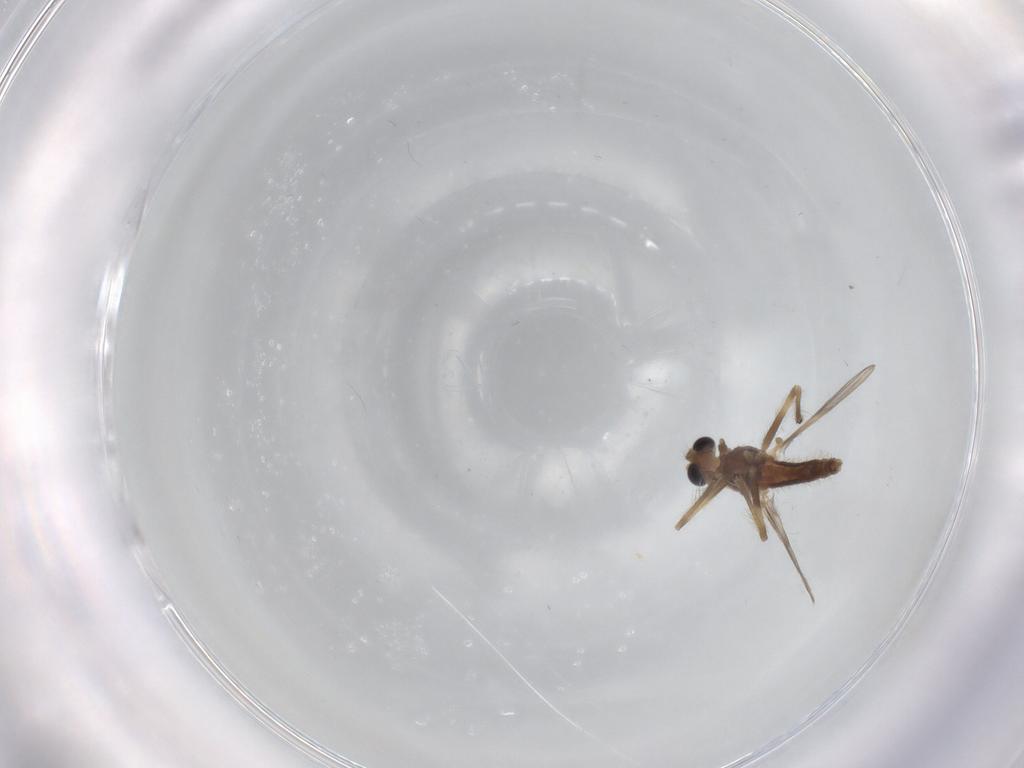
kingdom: Animalia
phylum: Arthropoda
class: Insecta
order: Diptera
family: Chironomidae
